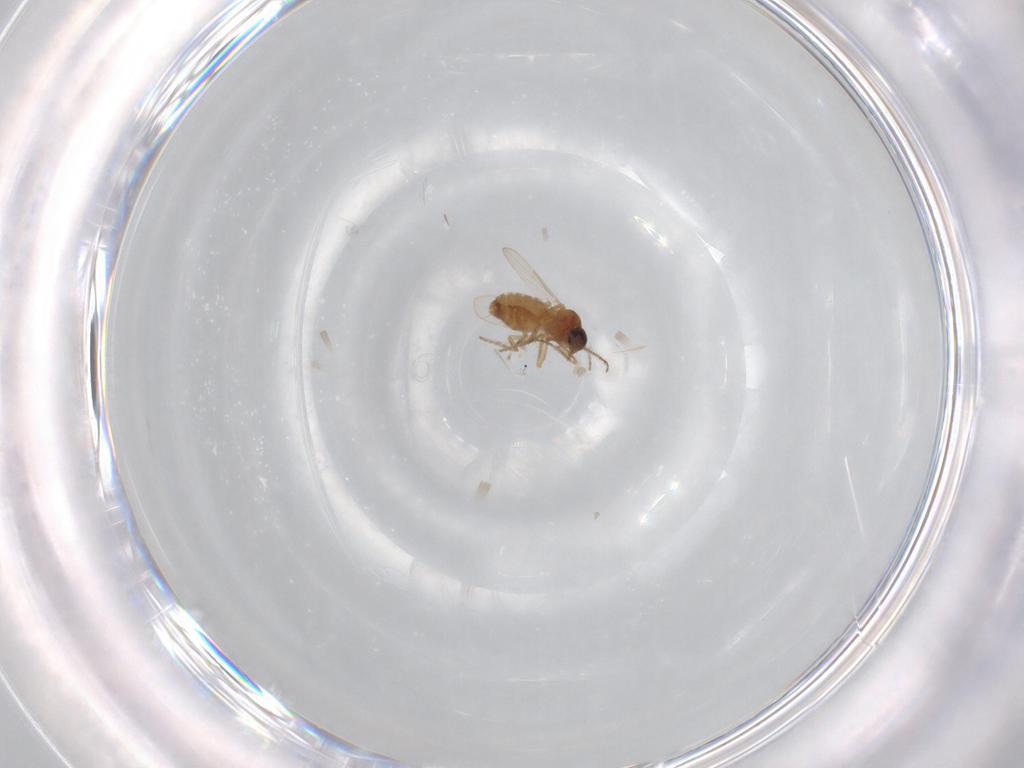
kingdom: Animalia
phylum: Arthropoda
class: Insecta
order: Diptera
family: Ceratopogonidae
